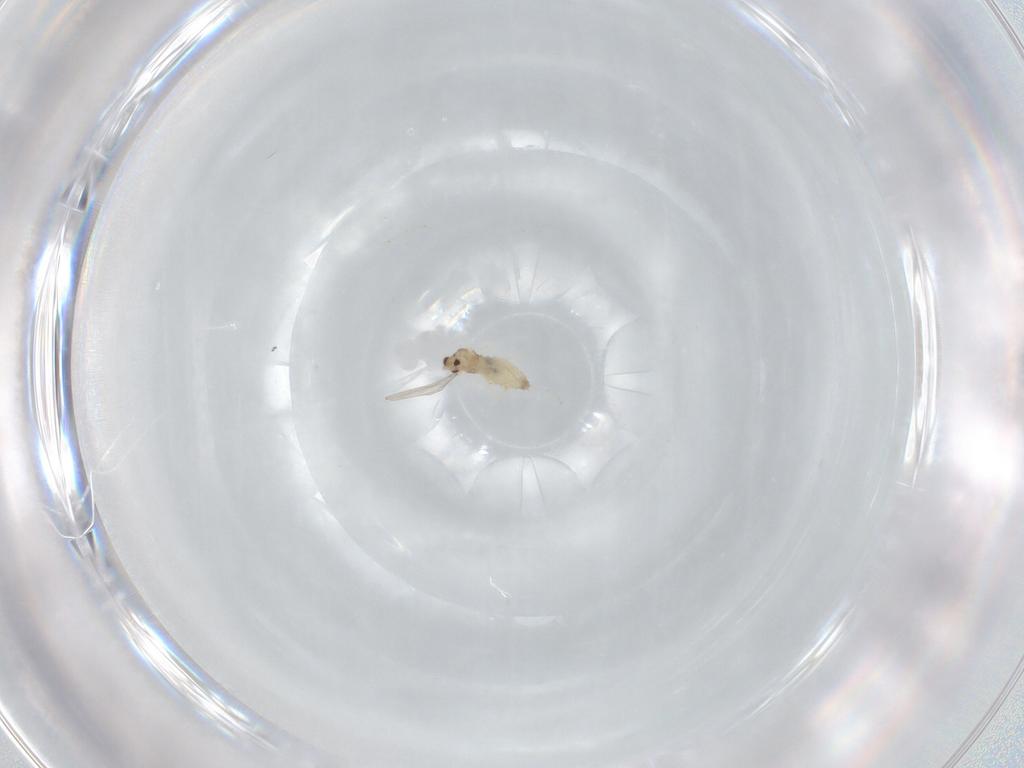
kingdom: Animalia
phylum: Arthropoda
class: Insecta
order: Diptera
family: Cecidomyiidae
